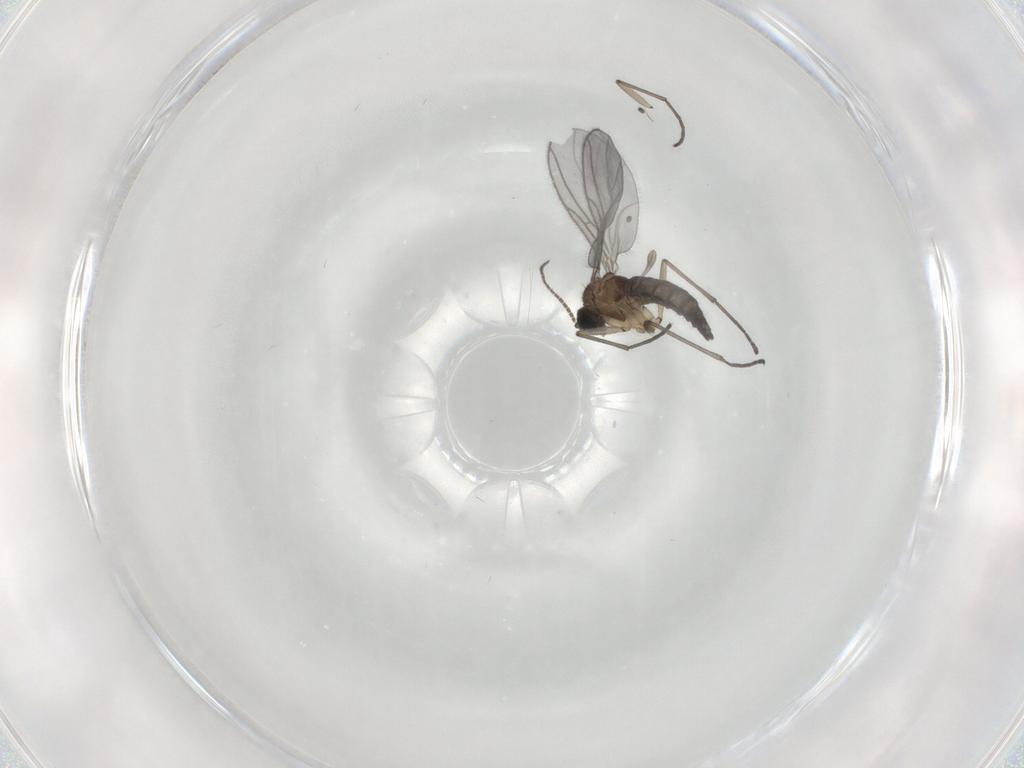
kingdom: Animalia
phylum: Arthropoda
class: Insecta
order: Diptera
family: Sciaridae
